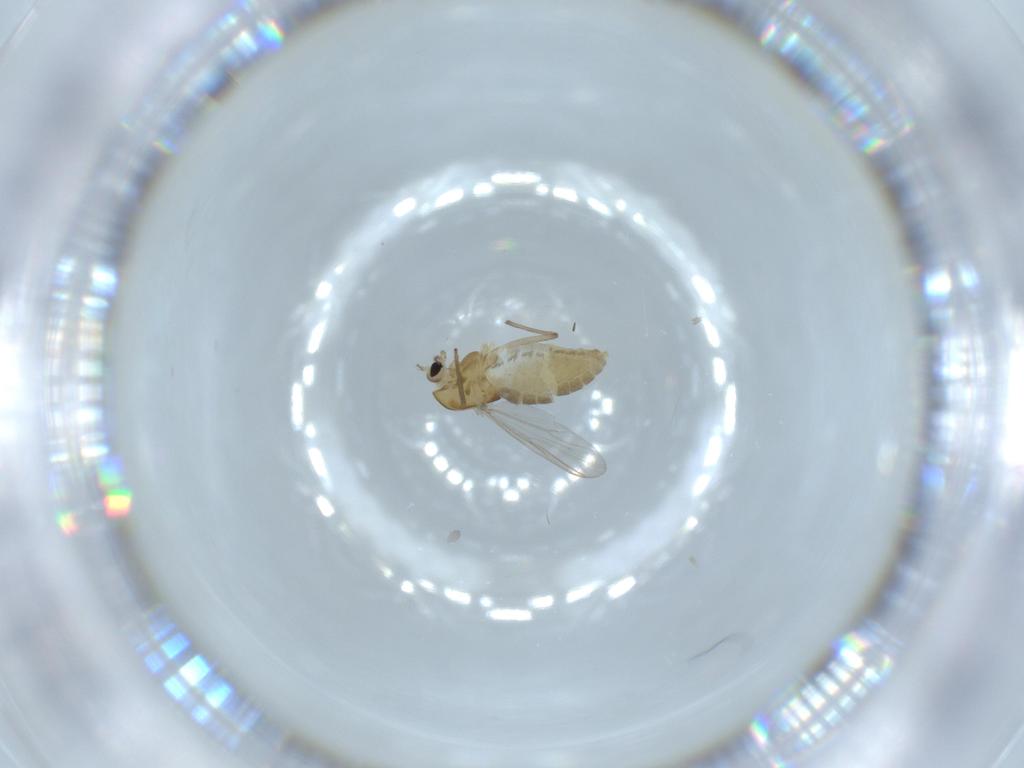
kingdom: Animalia
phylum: Arthropoda
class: Insecta
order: Diptera
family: Chironomidae
